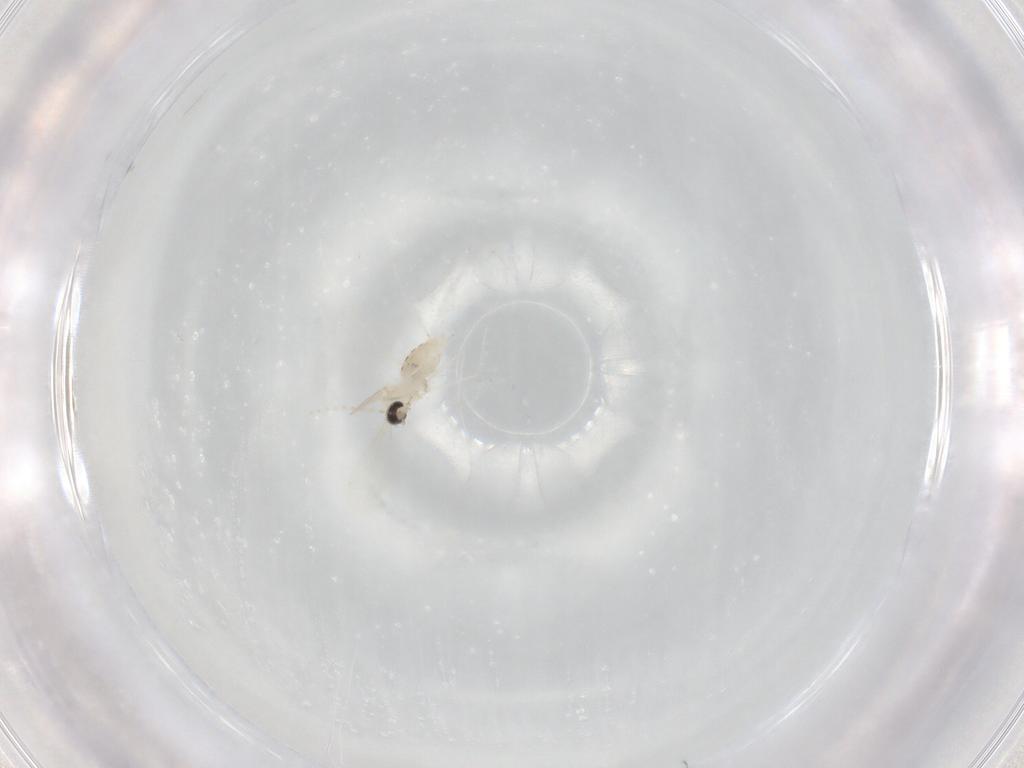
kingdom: Animalia
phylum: Arthropoda
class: Insecta
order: Diptera
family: Cecidomyiidae
